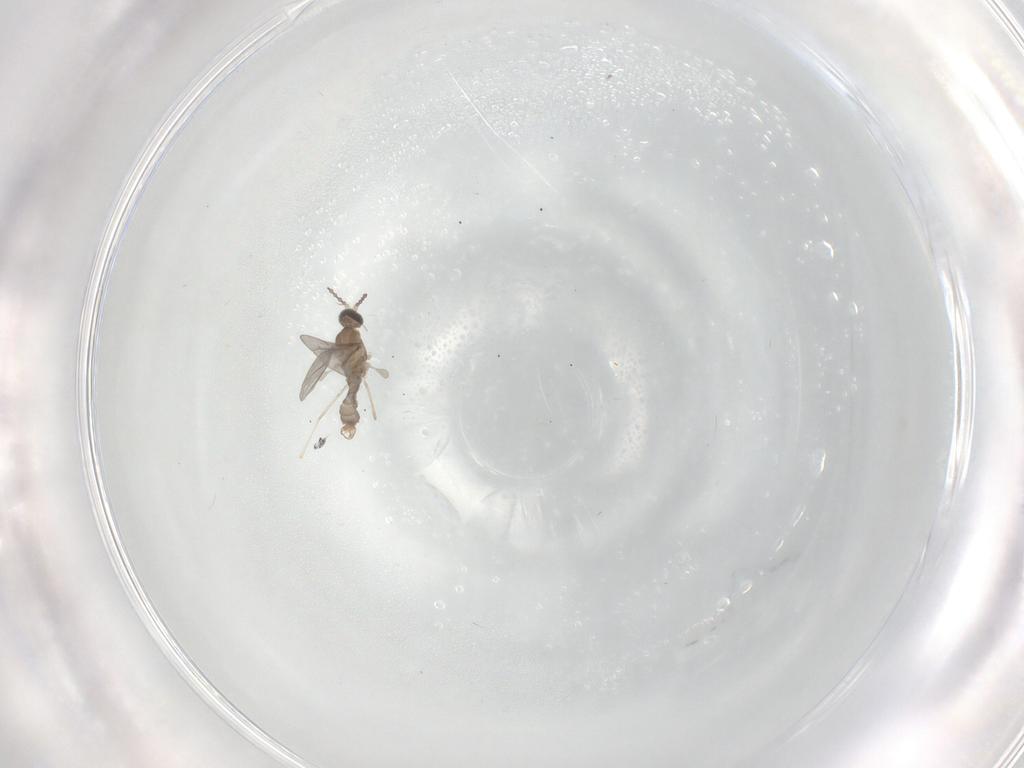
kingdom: Animalia
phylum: Arthropoda
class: Insecta
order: Diptera
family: Cecidomyiidae
